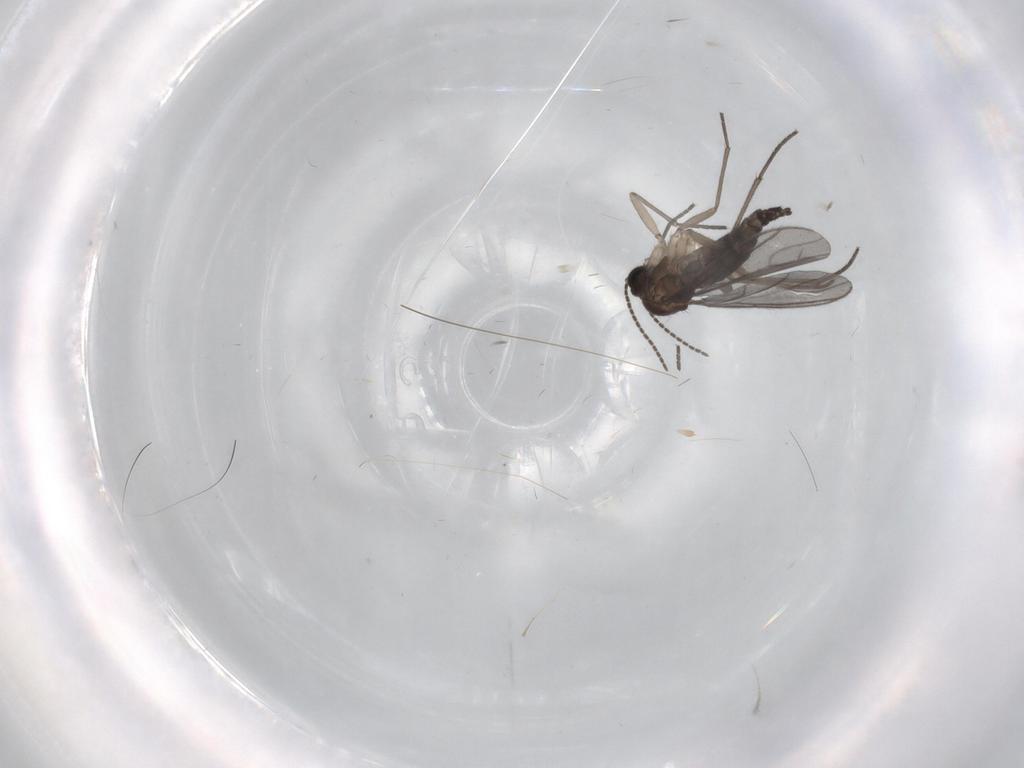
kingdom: Animalia
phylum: Arthropoda
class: Insecta
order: Diptera
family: Sciaridae
